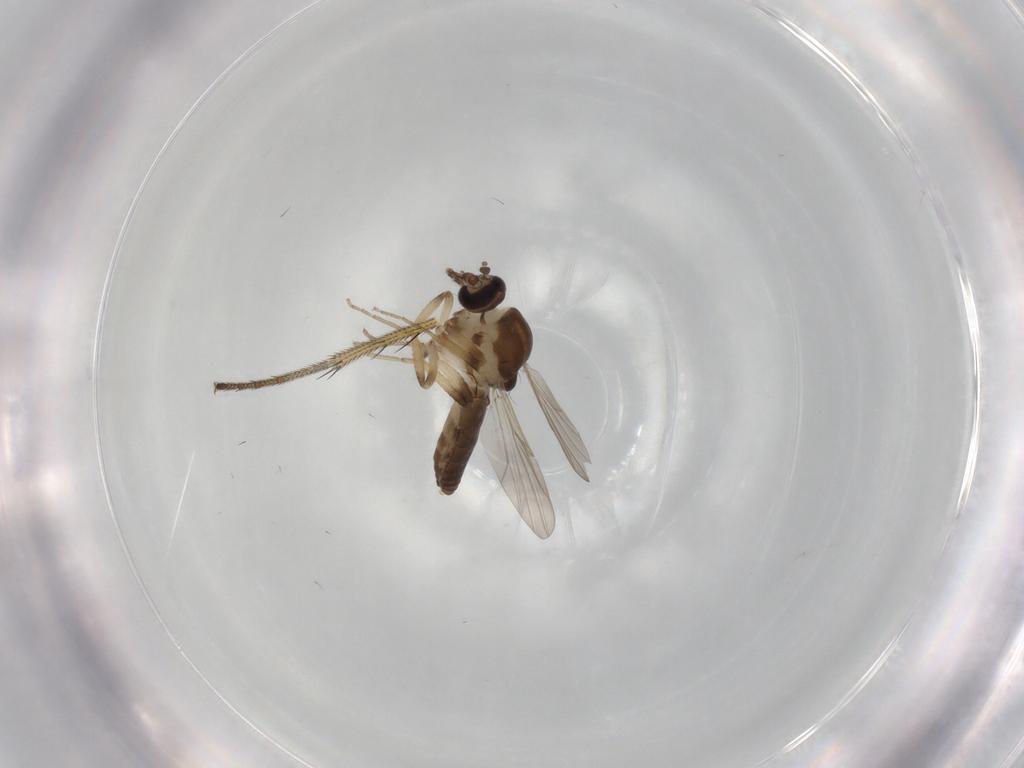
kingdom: Animalia
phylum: Arthropoda
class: Insecta
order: Diptera
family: Ceratopogonidae
